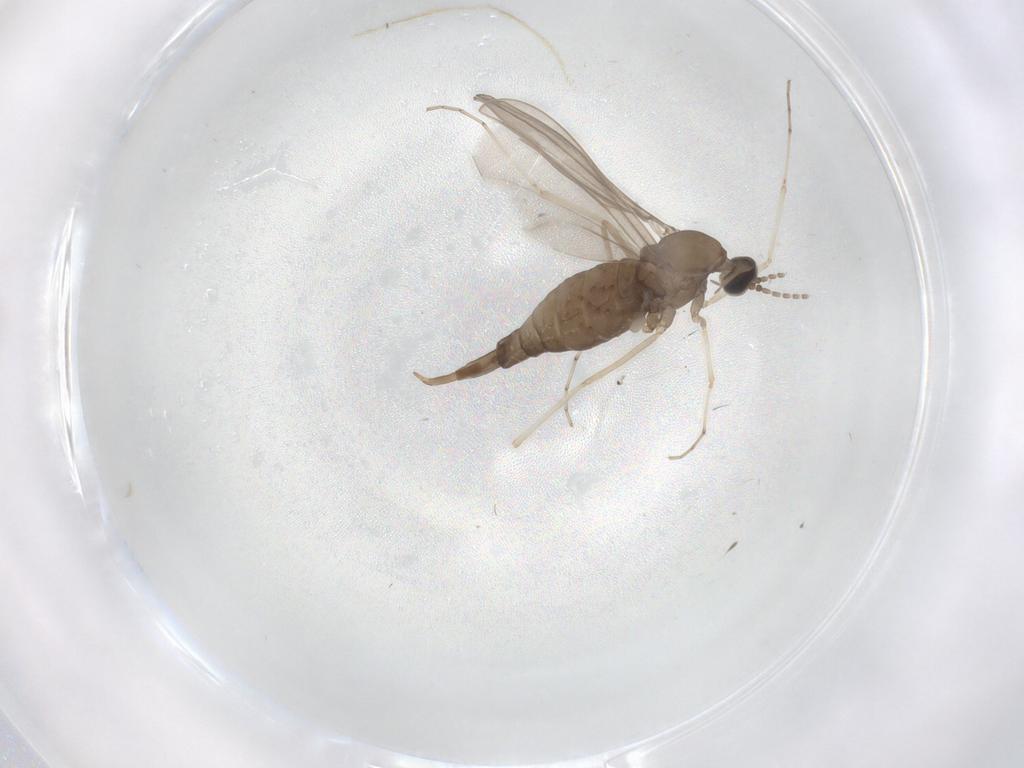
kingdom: Animalia
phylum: Arthropoda
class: Insecta
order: Diptera
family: Cecidomyiidae
